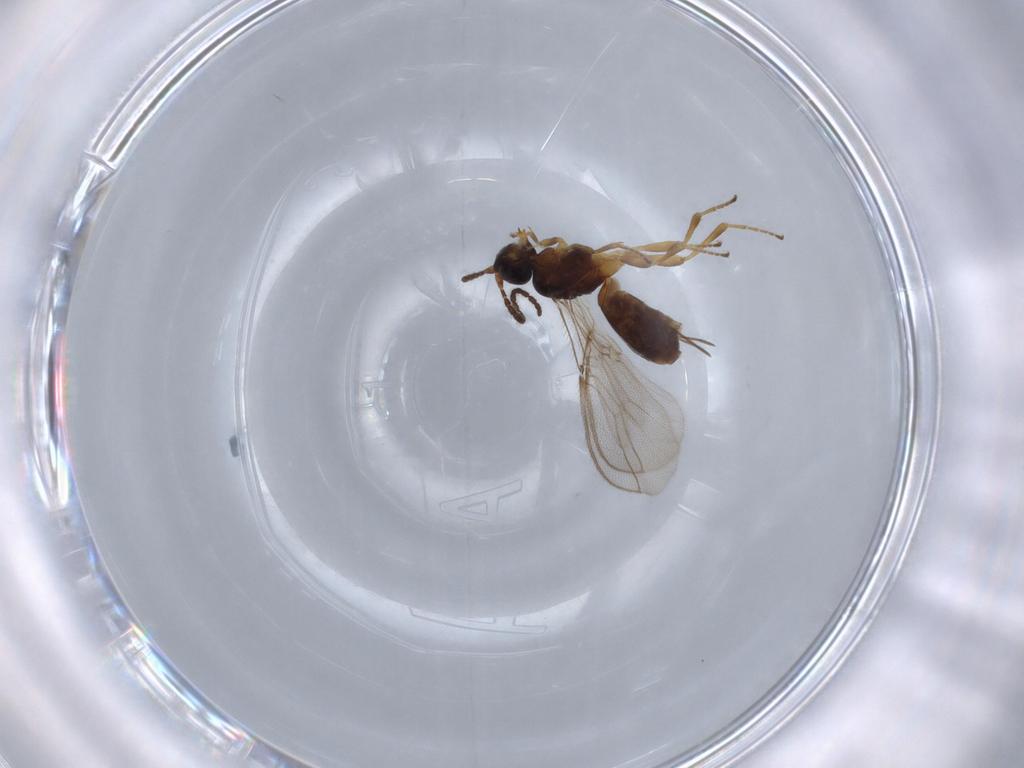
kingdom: Animalia
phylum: Arthropoda
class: Insecta
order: Hymenoptera
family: Braconidae
